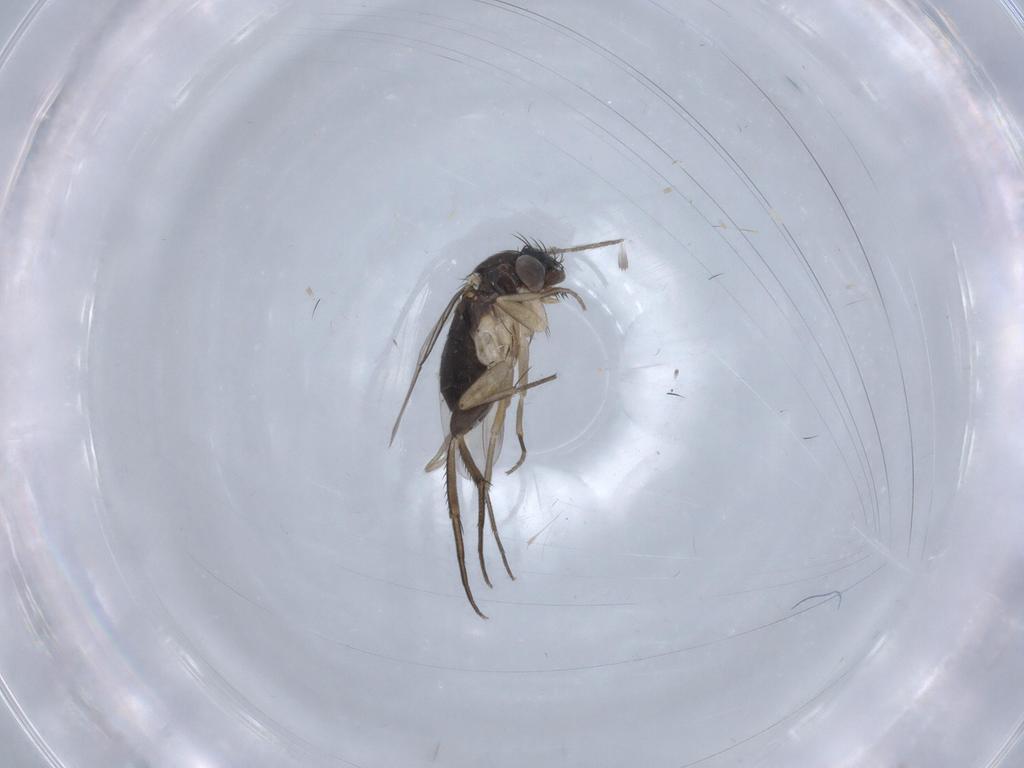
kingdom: Animalia
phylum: Arthropoda
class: Insecta
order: Diptera
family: Phoridae
